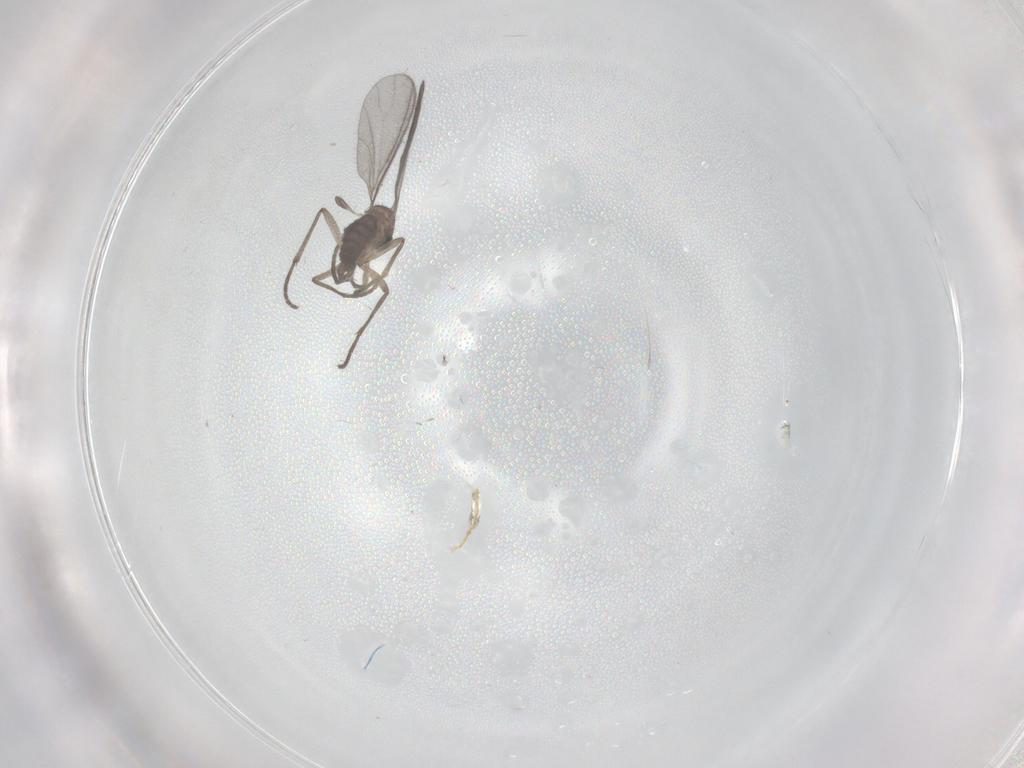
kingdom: Animalia
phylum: Arthropoda
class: Insecta
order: Diptera
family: Sciaridae
